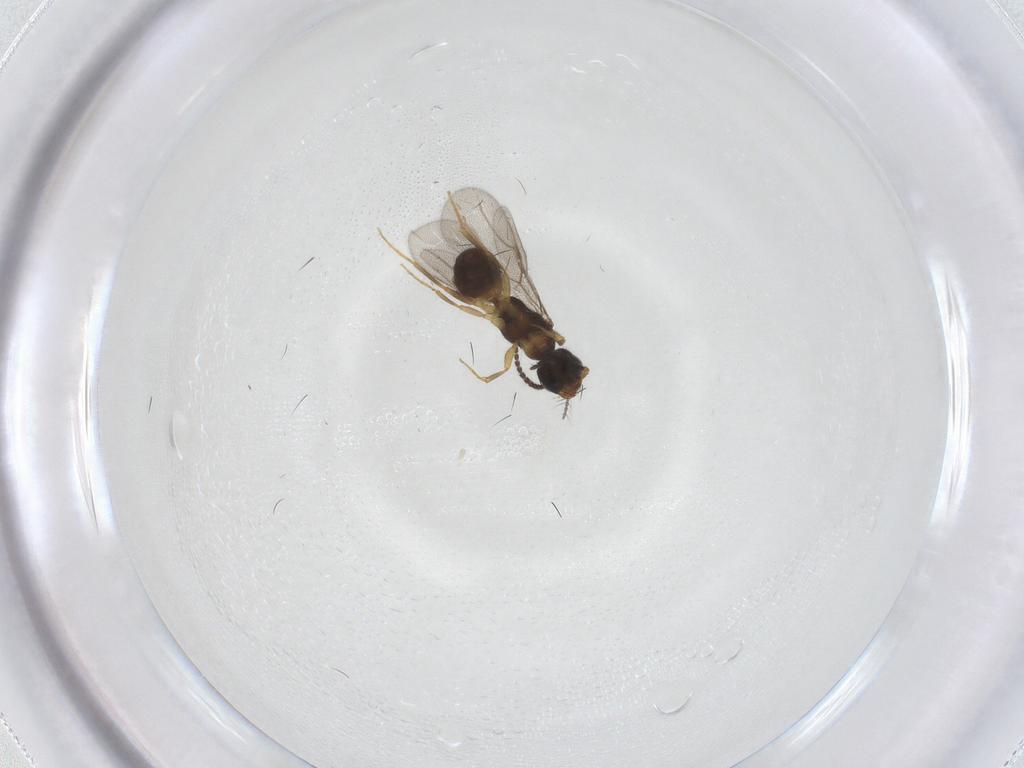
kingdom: Animalia
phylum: Arthropoda
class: Insecta
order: Hymenoptera
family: Bethylidae
